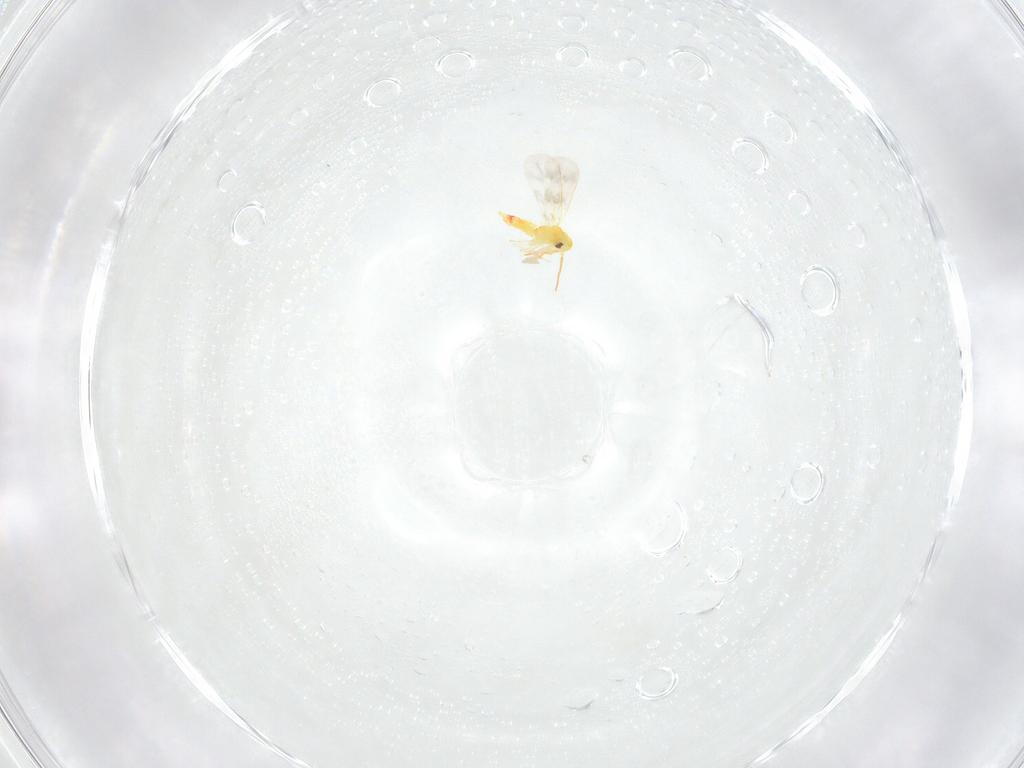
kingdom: Animalia
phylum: Arthropoda
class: Insecta
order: Hemiptera
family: Aleyrodidae
